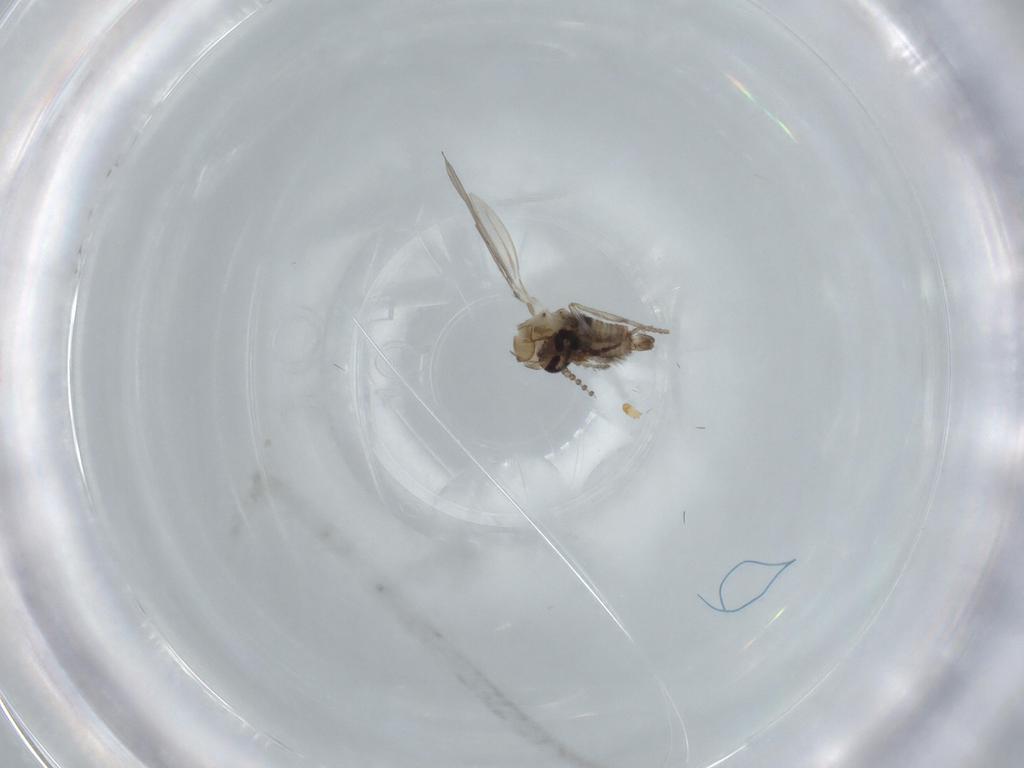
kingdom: Animalia
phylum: Arthropoda
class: Insecta
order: Diptera
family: Psychodidae
